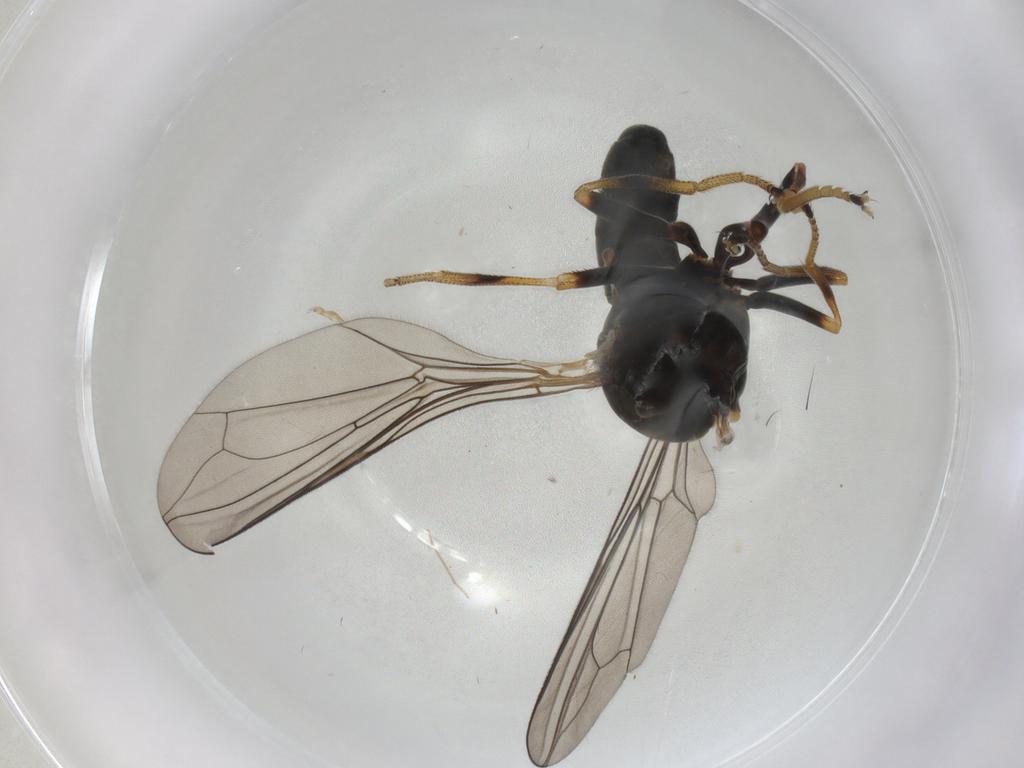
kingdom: Animalia
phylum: Arthropoda
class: Insecta
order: Diptera
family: Pipunculidae
